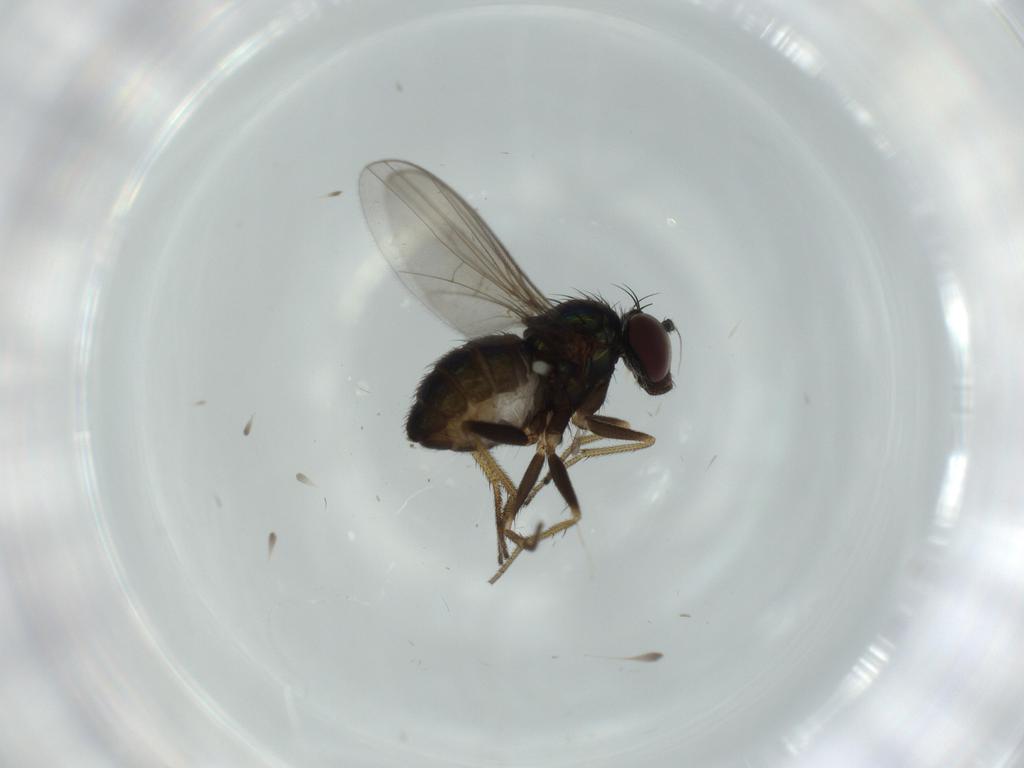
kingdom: Animalia
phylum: Arthropoda
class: Insecta
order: Diptera
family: Sciaridae
